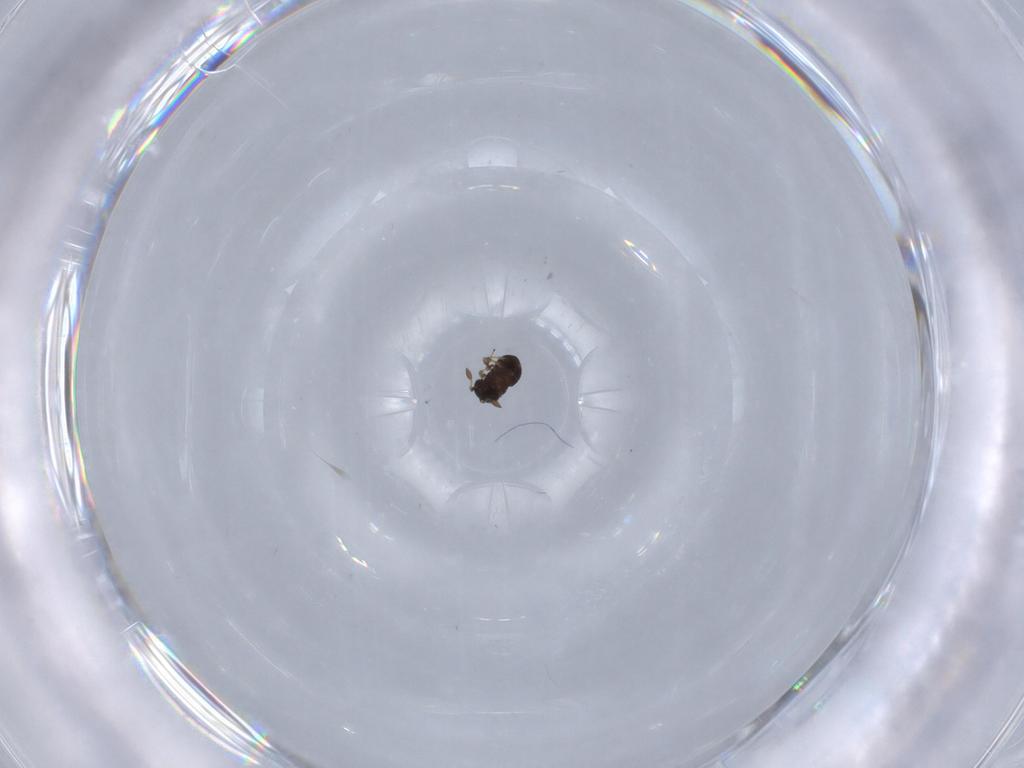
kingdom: Animalia
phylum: Arthropoda
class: Insecta
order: Hymenoptera
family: Scelionidae
